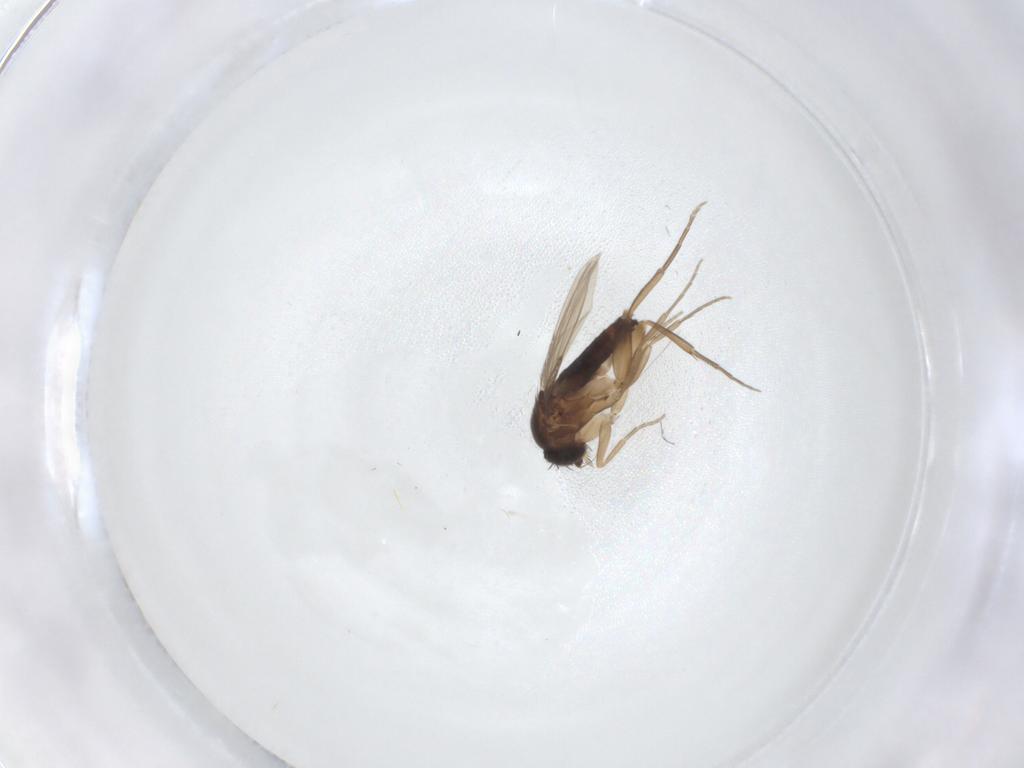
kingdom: Animalia
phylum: Arthropoda
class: Insecta
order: Diptera
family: Phoridae
